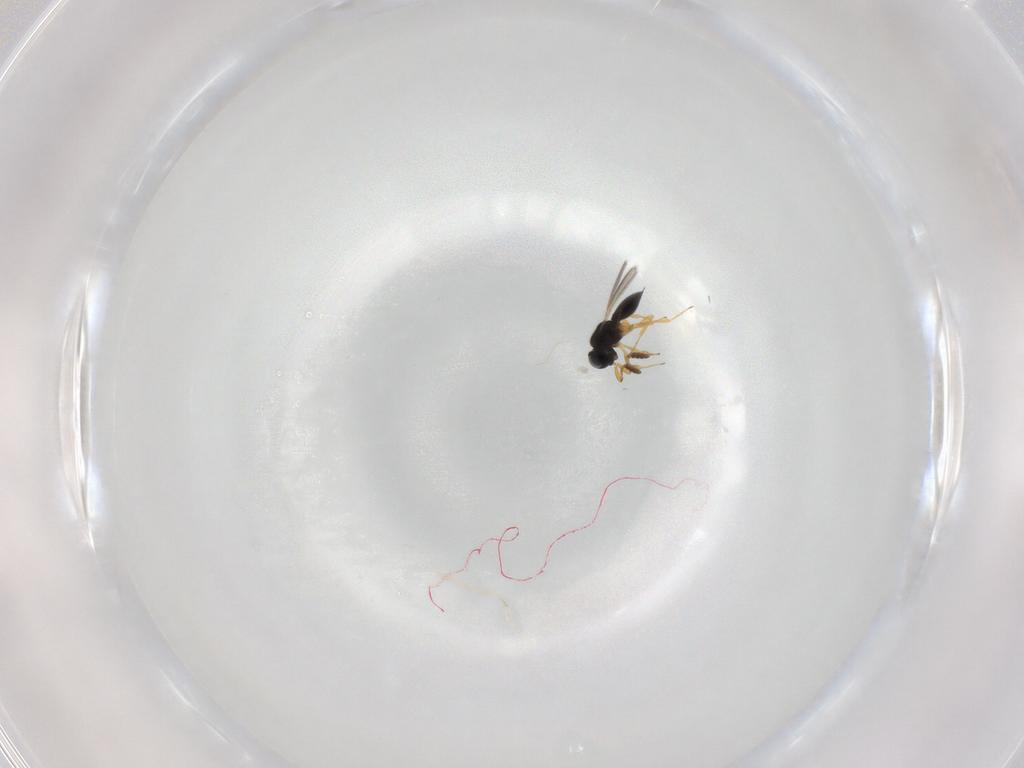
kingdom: Animalia
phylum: Arthropoda
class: Insecta
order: Hymenoptera
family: Scelionidae
